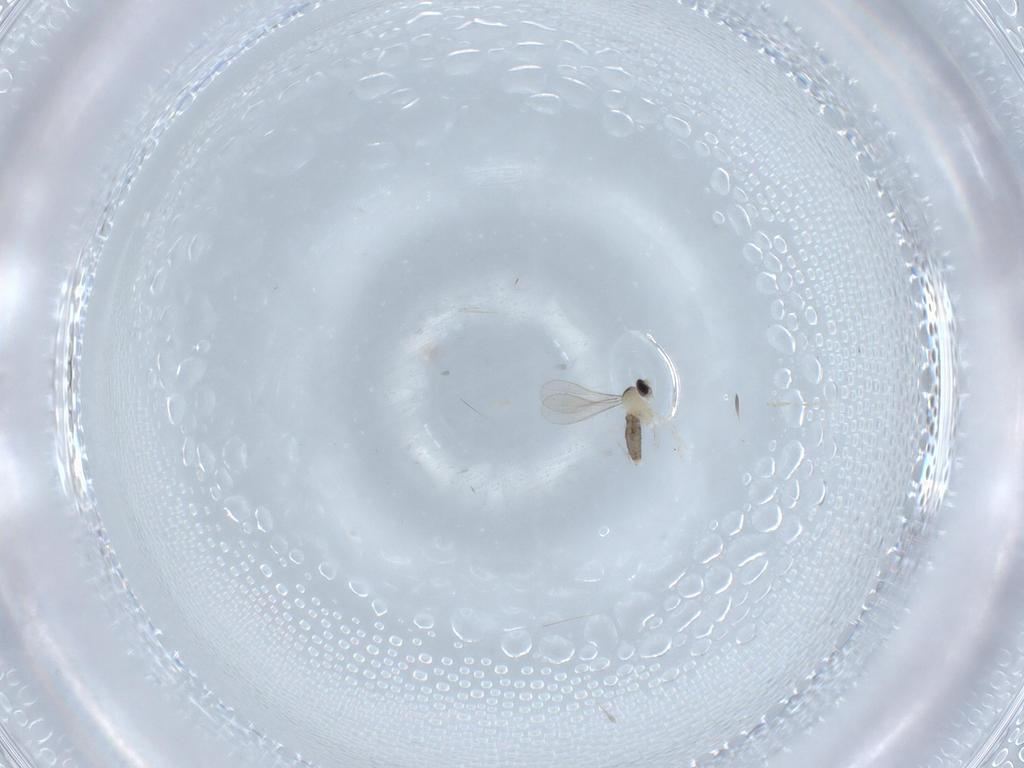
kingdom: Animalia
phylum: Arthropoda
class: Insecta
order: Diptera
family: Cecidomyiidae
